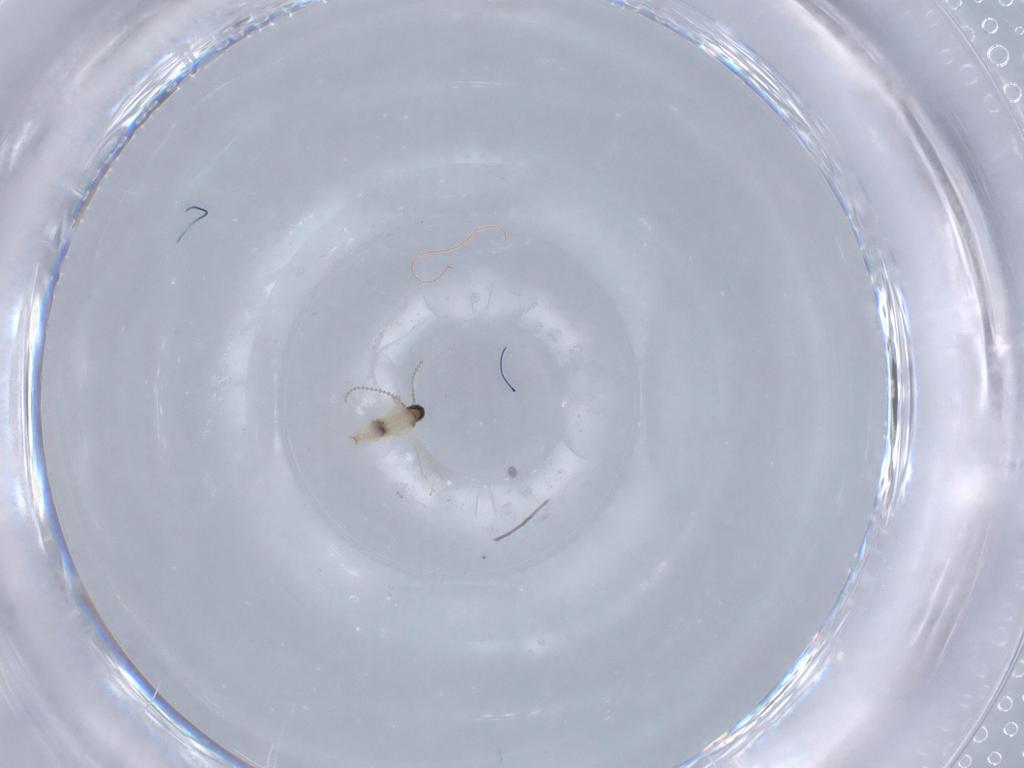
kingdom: Animalia
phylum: Arthropoda
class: Insecta
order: Diptera
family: Cecidomyiidae
